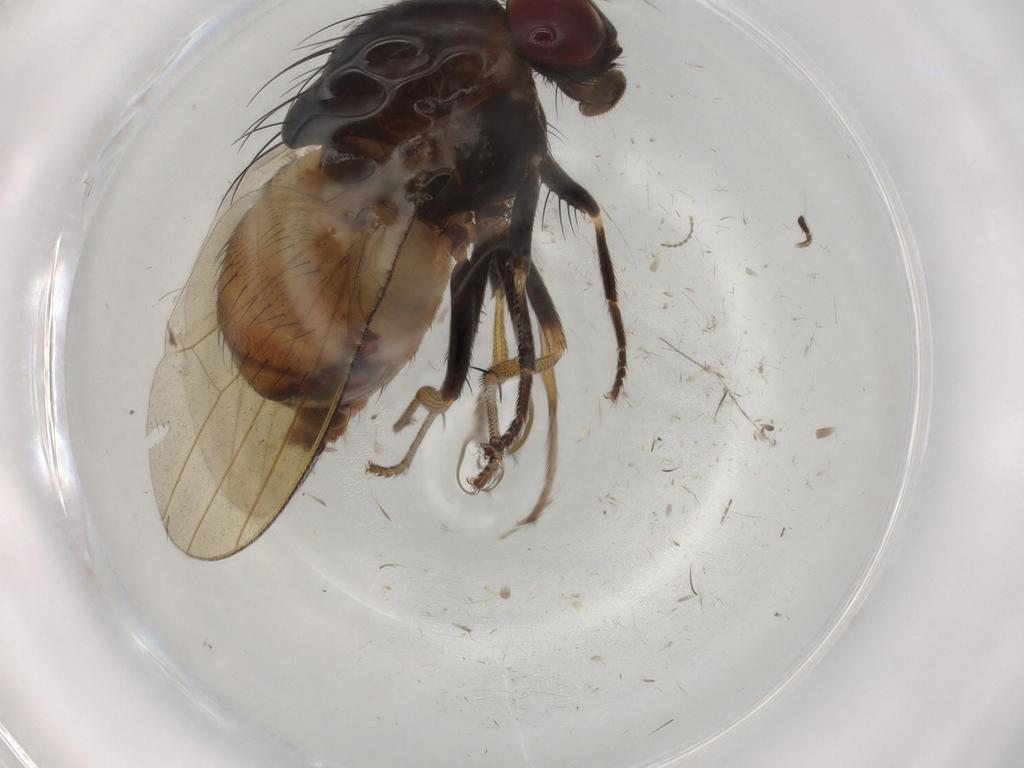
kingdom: Animalia
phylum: Arthropoda
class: Insecta
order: Diptera
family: Chironomidae
